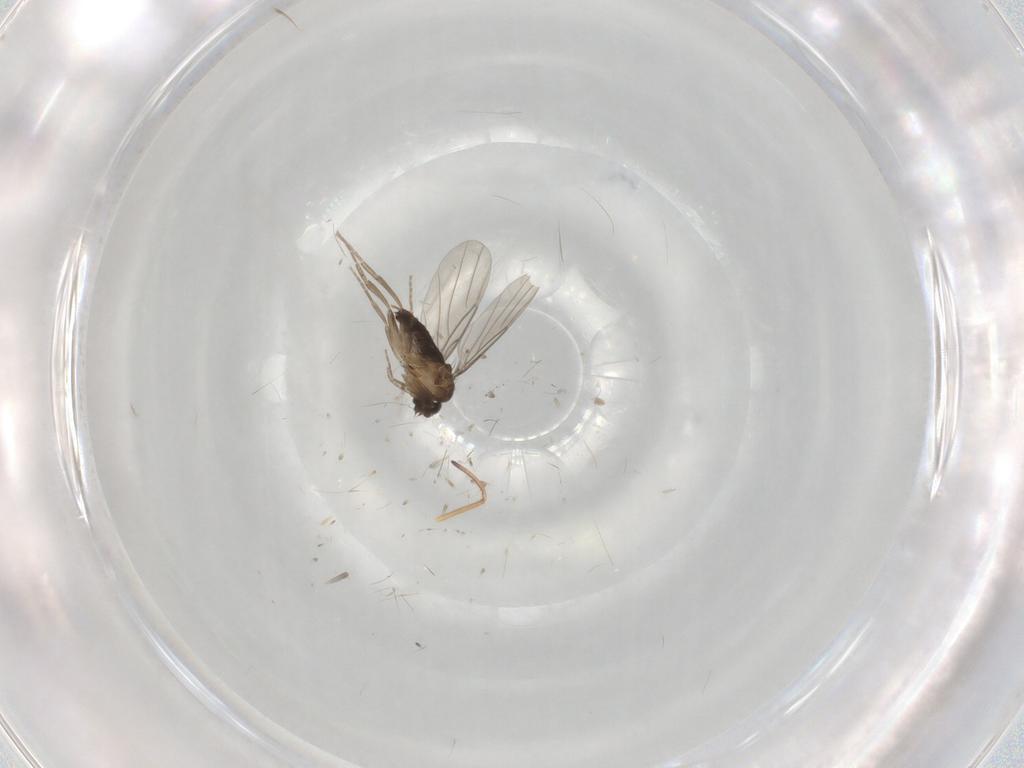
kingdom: Animalia
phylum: Arthropoda
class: Insecta
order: Diptera
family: Phoridae
